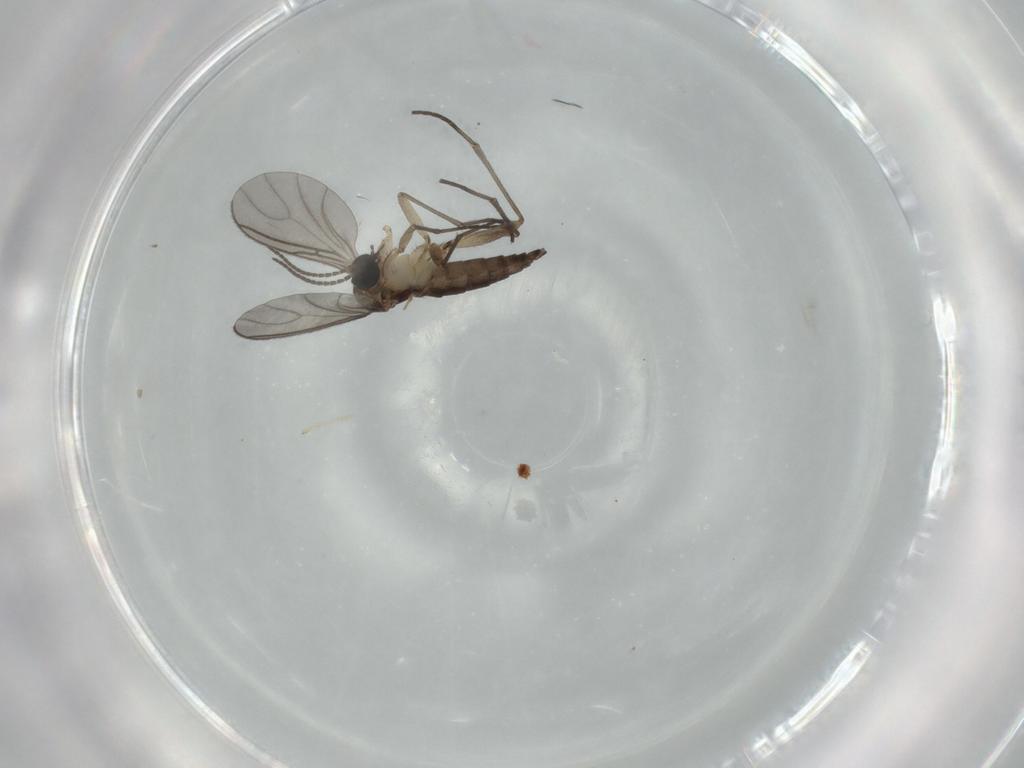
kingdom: Animalia
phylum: Arthropoda
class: Insecta
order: Diptera
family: Sciaridae
